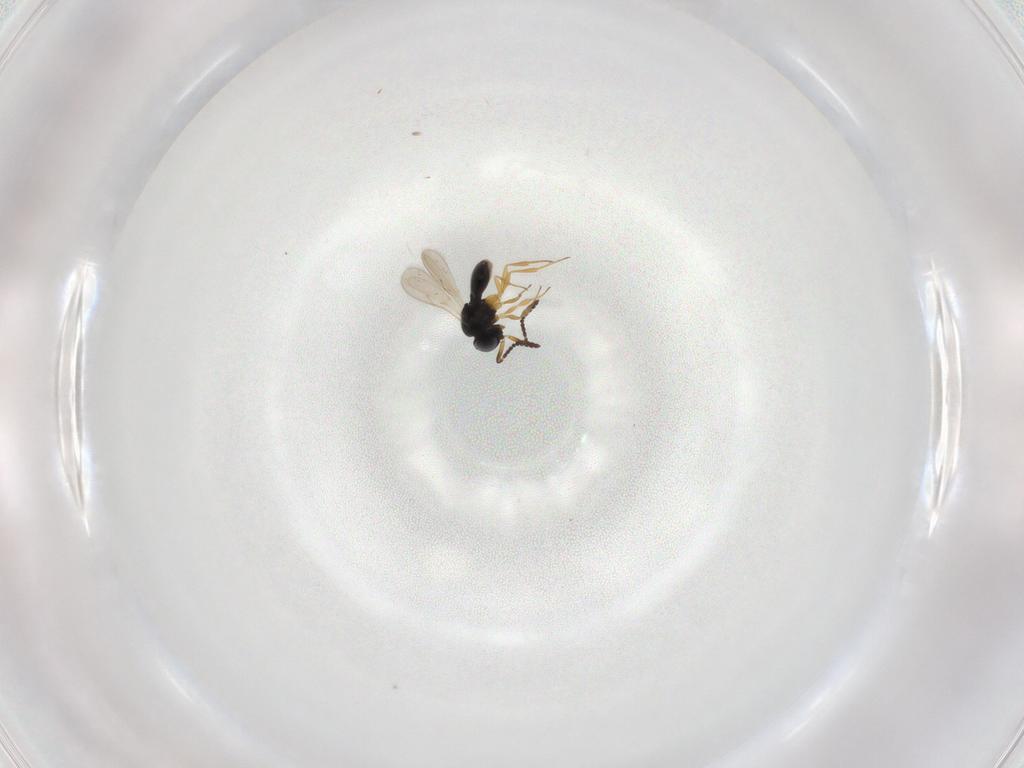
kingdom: Animalia
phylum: Arthropoda
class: Insecta
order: Hymenoptera
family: Scelionidae
